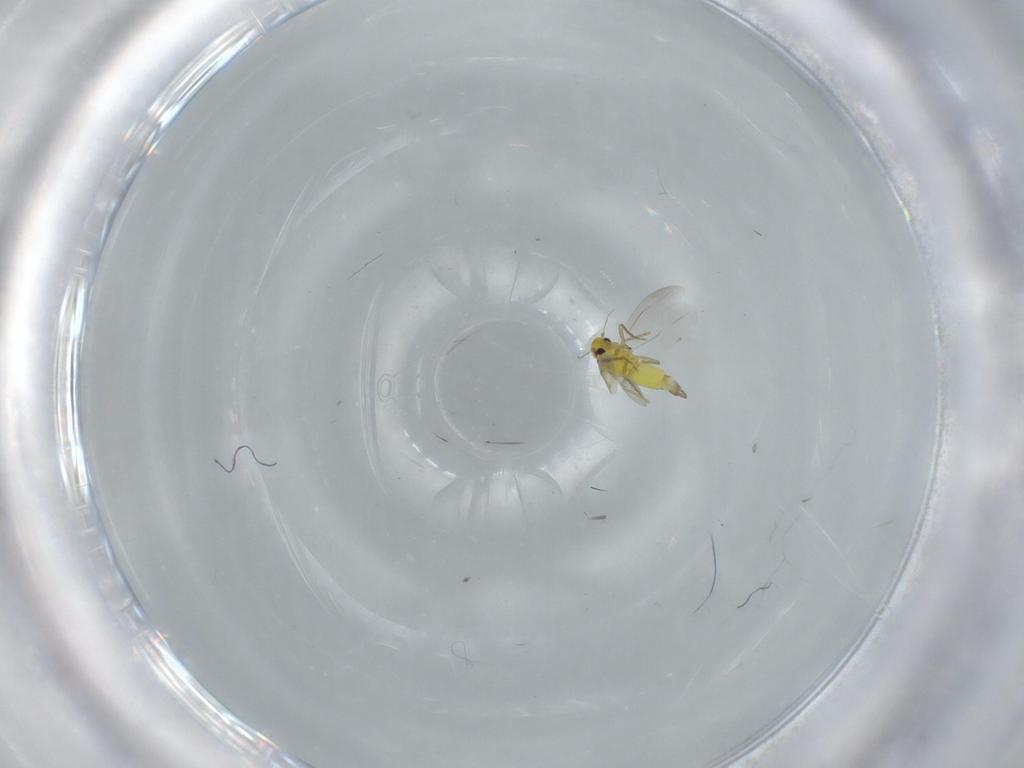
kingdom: Animalia
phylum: Arthropoda
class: Insecta
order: Hemiptera
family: Aleyrodidae
